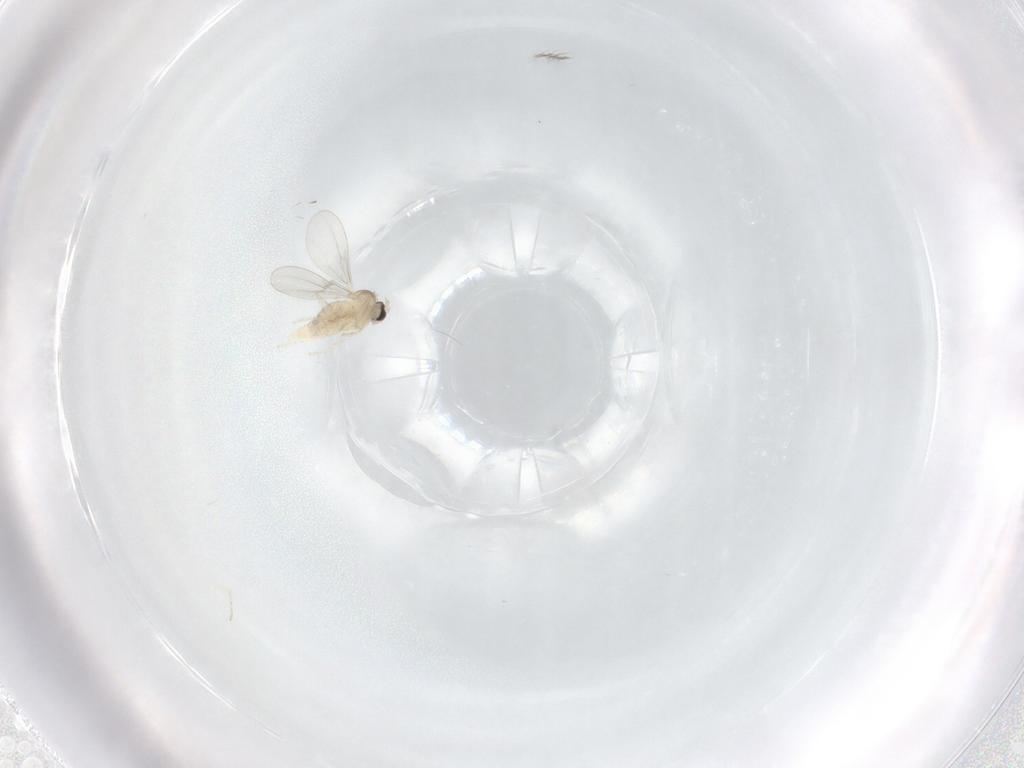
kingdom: Animalia
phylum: Arthropoda
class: Insecta
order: Diptera
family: Cecidomyiidae
